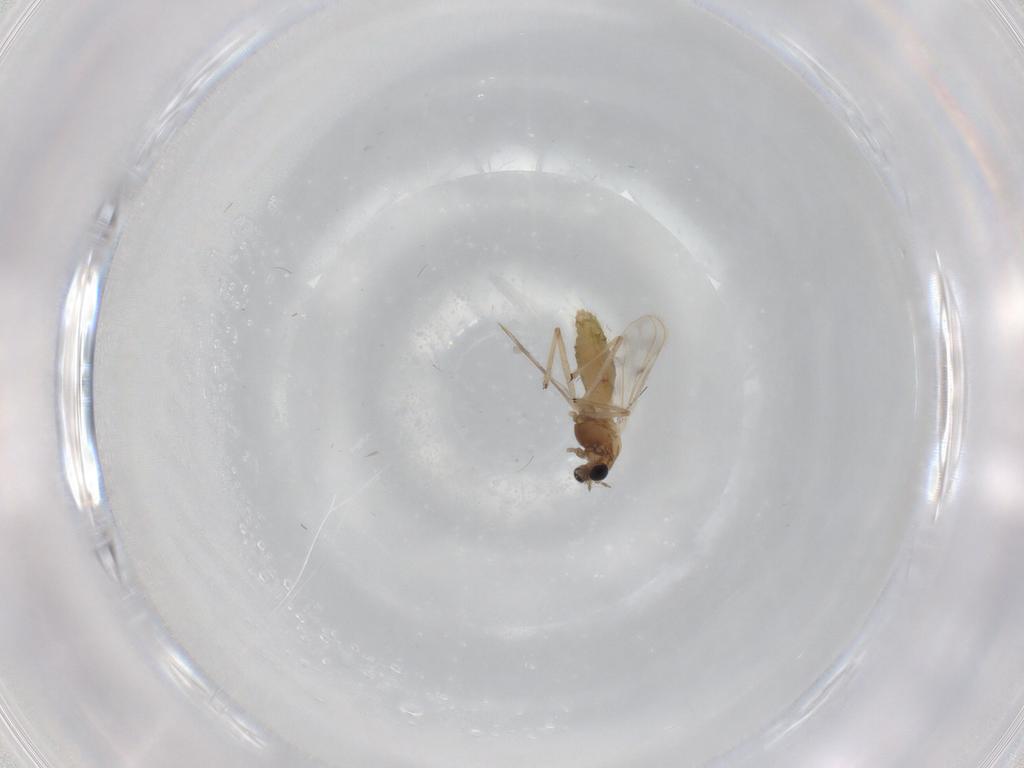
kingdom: Animalia
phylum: Arthropoda
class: Insecta
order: Diptera
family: Chironomidae
